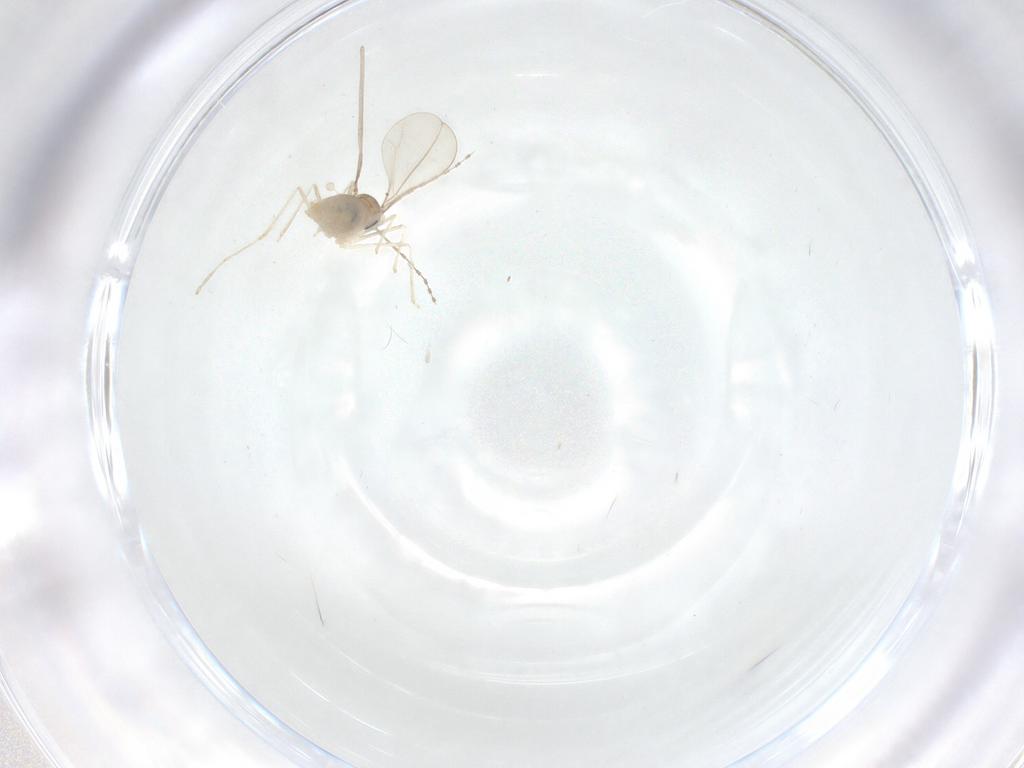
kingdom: Animalia
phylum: Arthropoda
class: Insecta
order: Diptera
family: Cecidomyiidae
